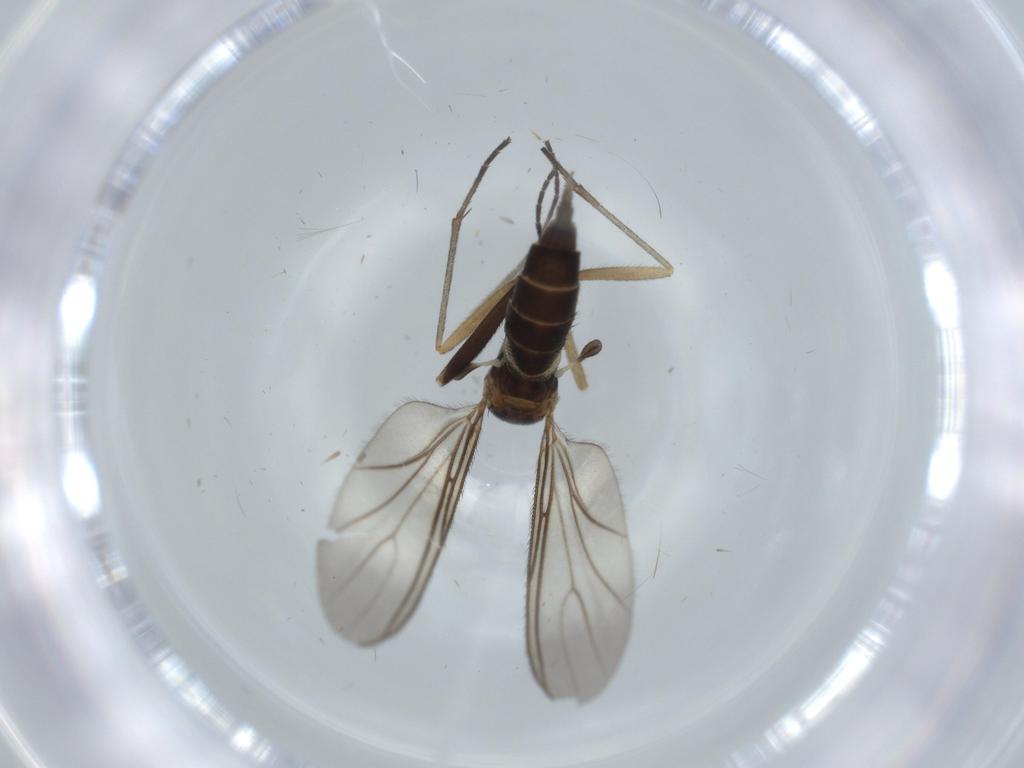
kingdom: Animalia
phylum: Arthropoda
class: Insecta
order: Diptera
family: Sciaridae
